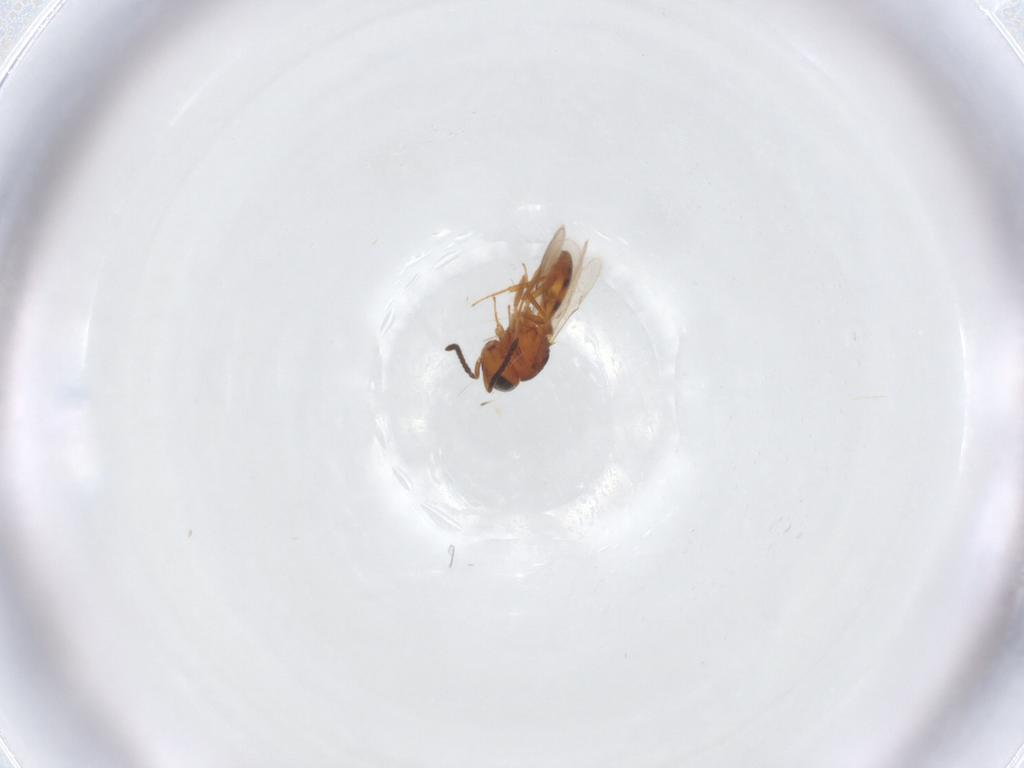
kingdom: Animalia
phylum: Arthropoda
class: Insecta
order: Hymenoptera
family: Scelionidae
